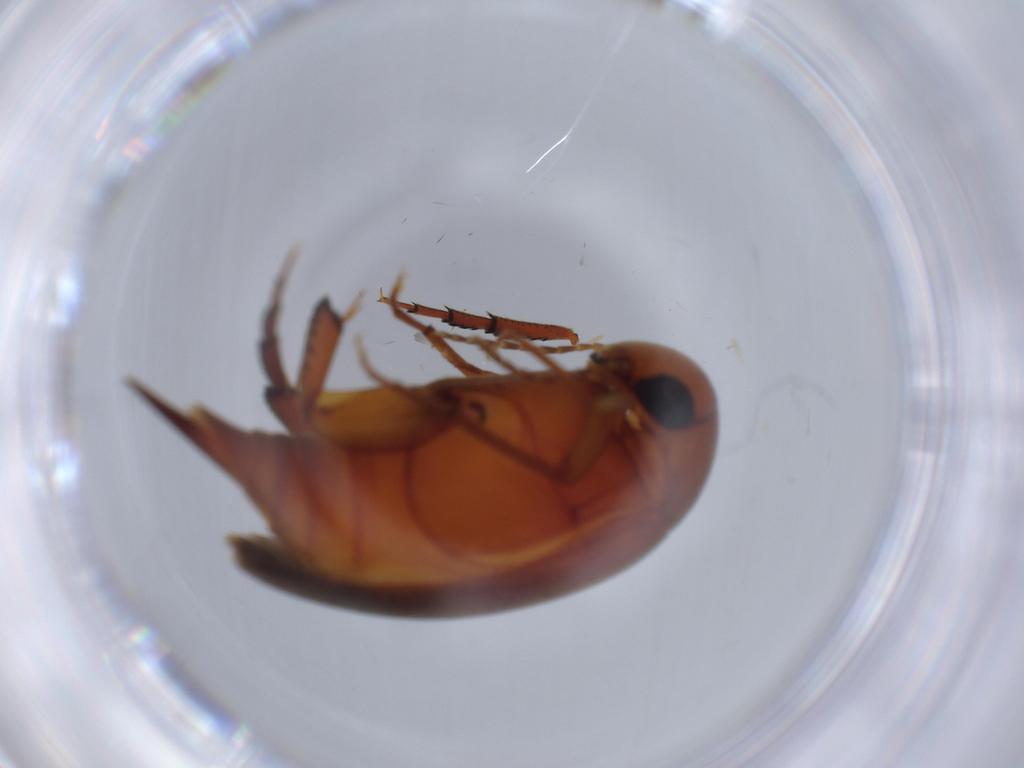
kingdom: Animalia
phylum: Arthropoda
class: Insecta
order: Coleoptera
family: Mordellidae
